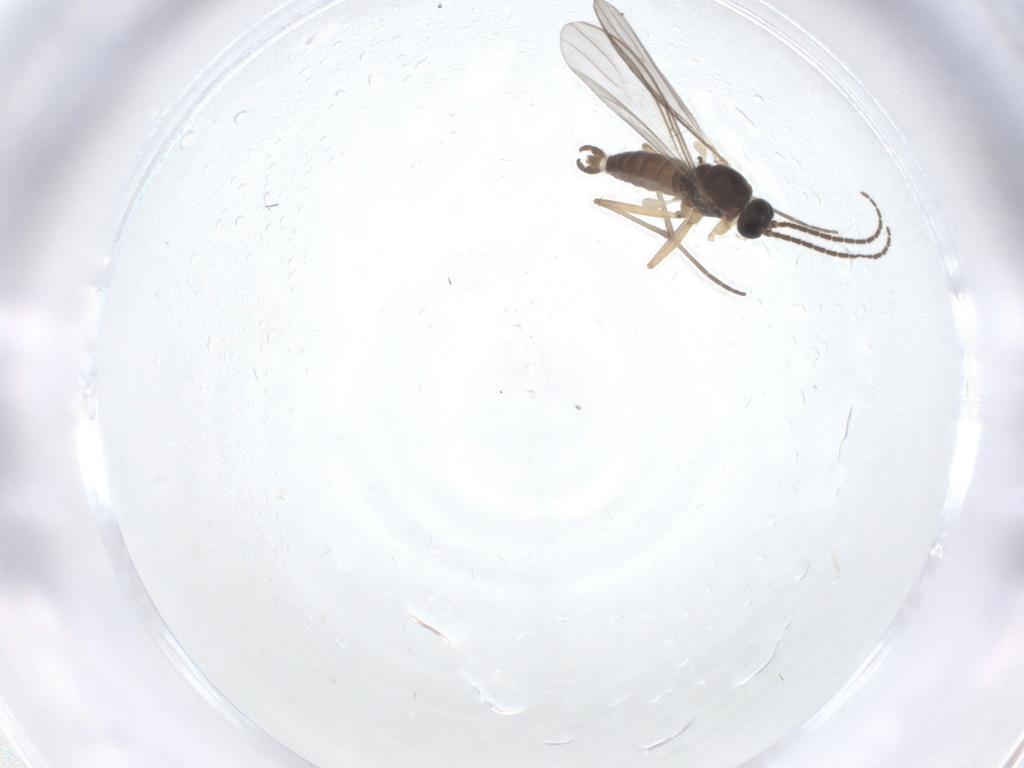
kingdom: Animalia
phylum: Arthropoda
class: Insecta
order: Diptera
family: Sciaridae
